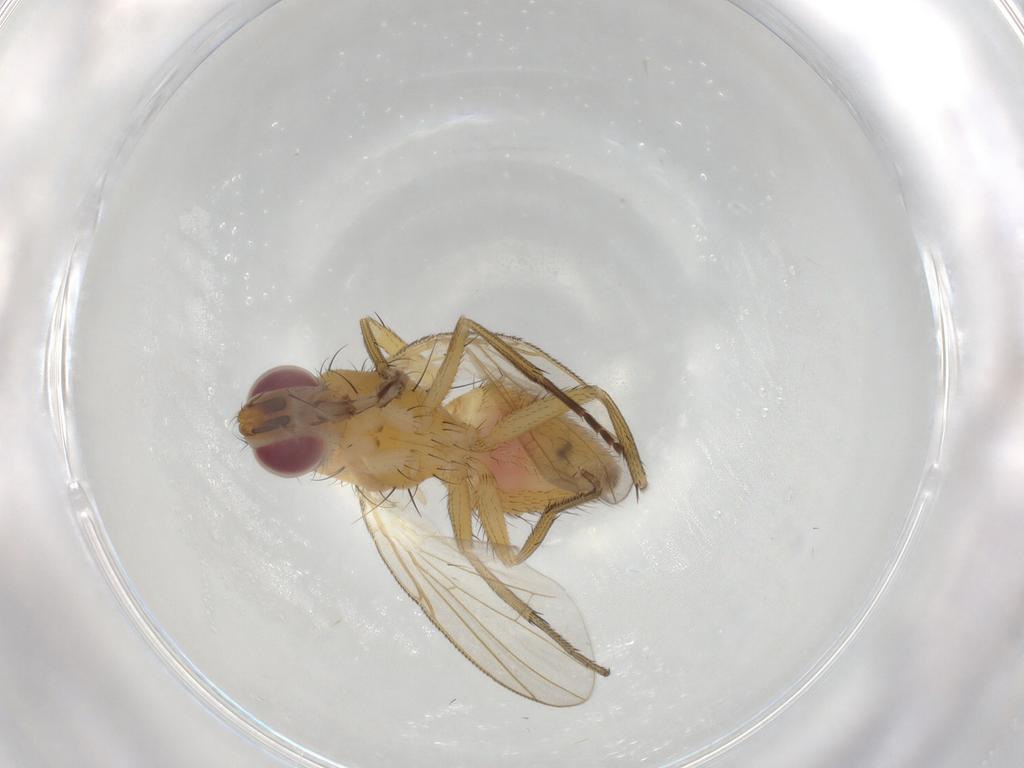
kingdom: Animalia
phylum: Arthropoda
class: Insecta
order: Diptera
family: Muscidae
